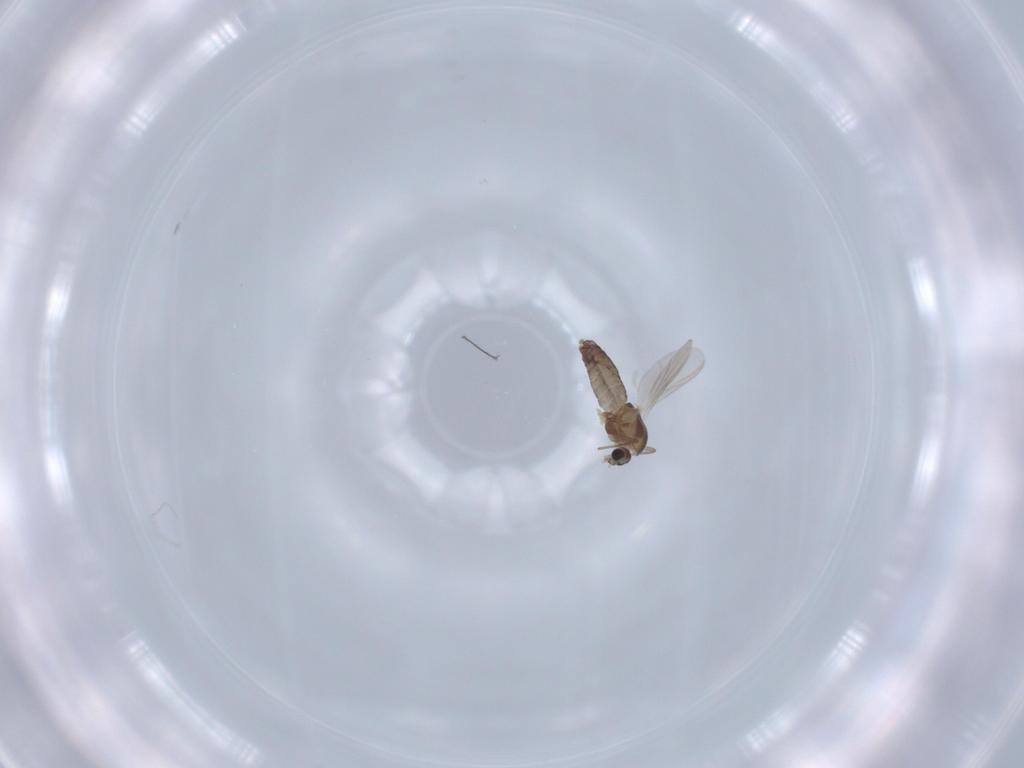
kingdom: Animalia
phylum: Arthropoda
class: Insecta
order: Diptera
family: Chironomidae
